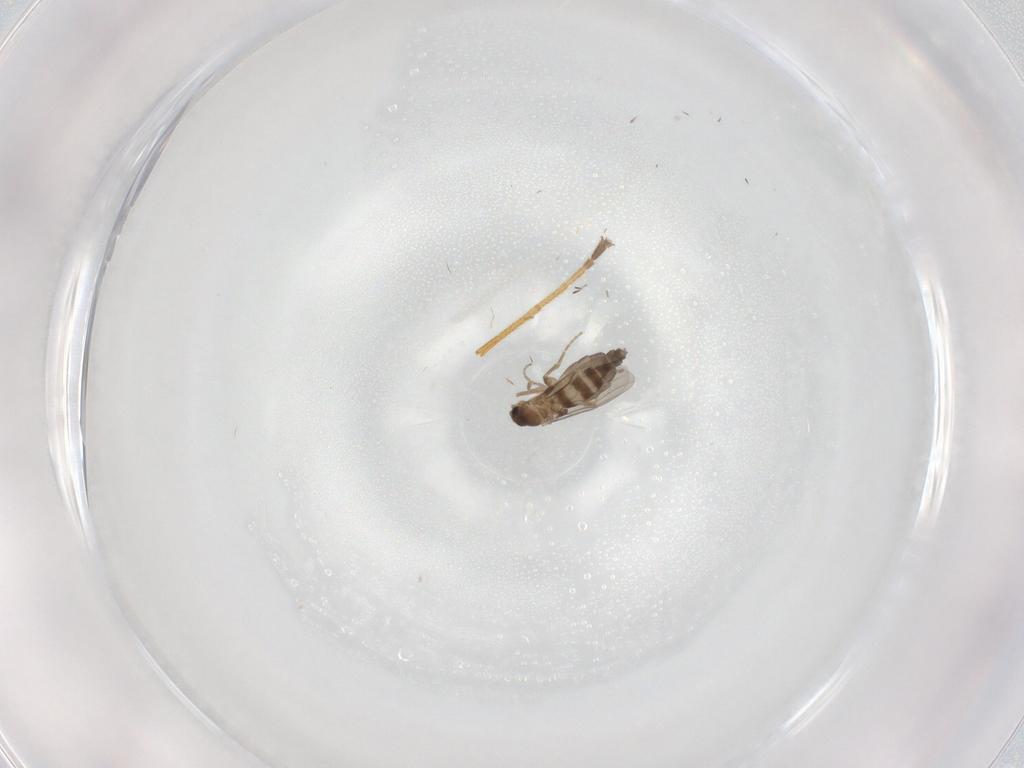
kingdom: Animalia
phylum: Arthropoda
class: Insecta
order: Diptera
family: Phoridae
